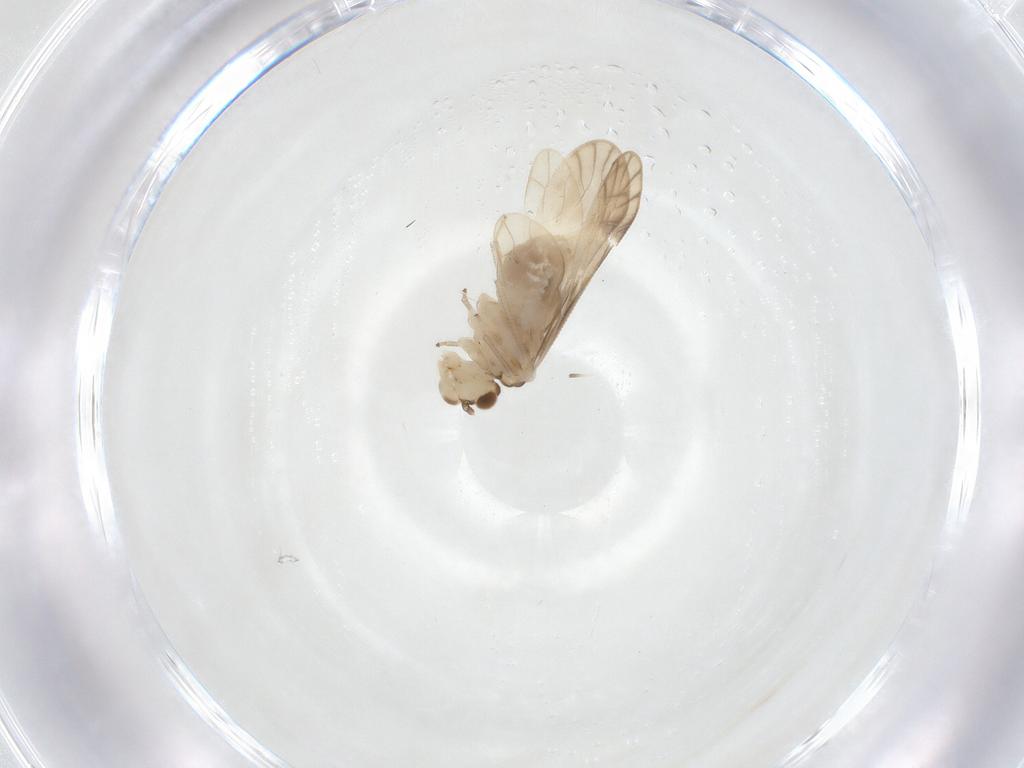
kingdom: Animalia
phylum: Arthropoda
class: Insecta
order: Psocodea
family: Caeciliusidae
